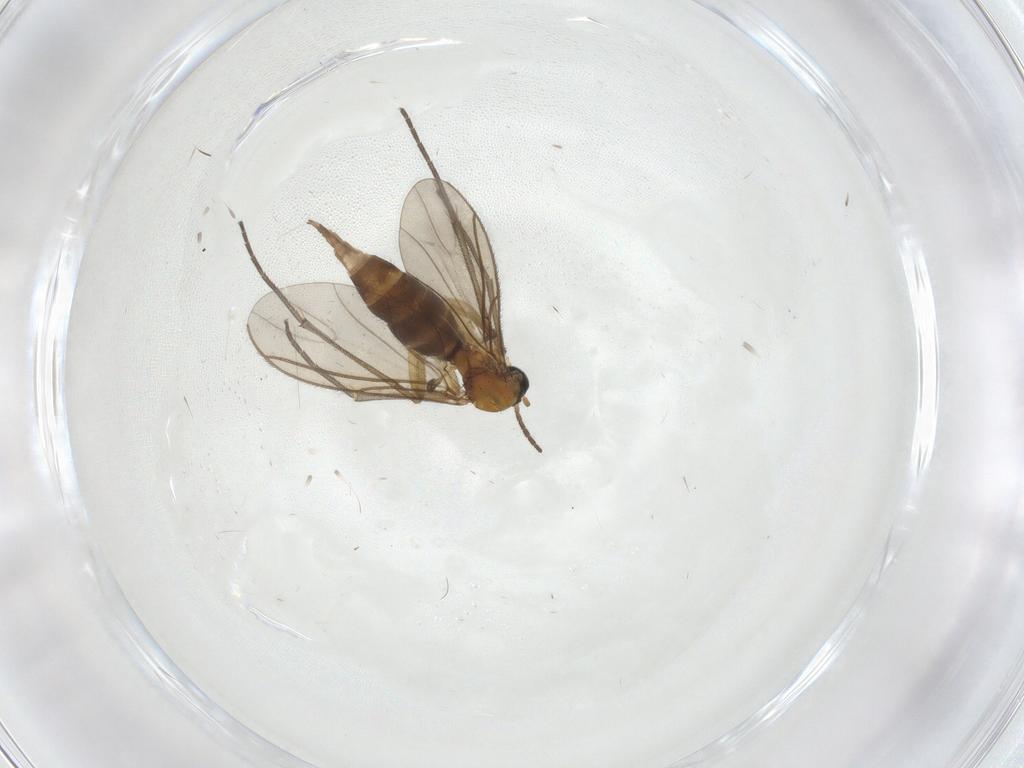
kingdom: Animalia
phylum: Arthropoda
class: Insecta
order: Diptera
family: Sciaridae
